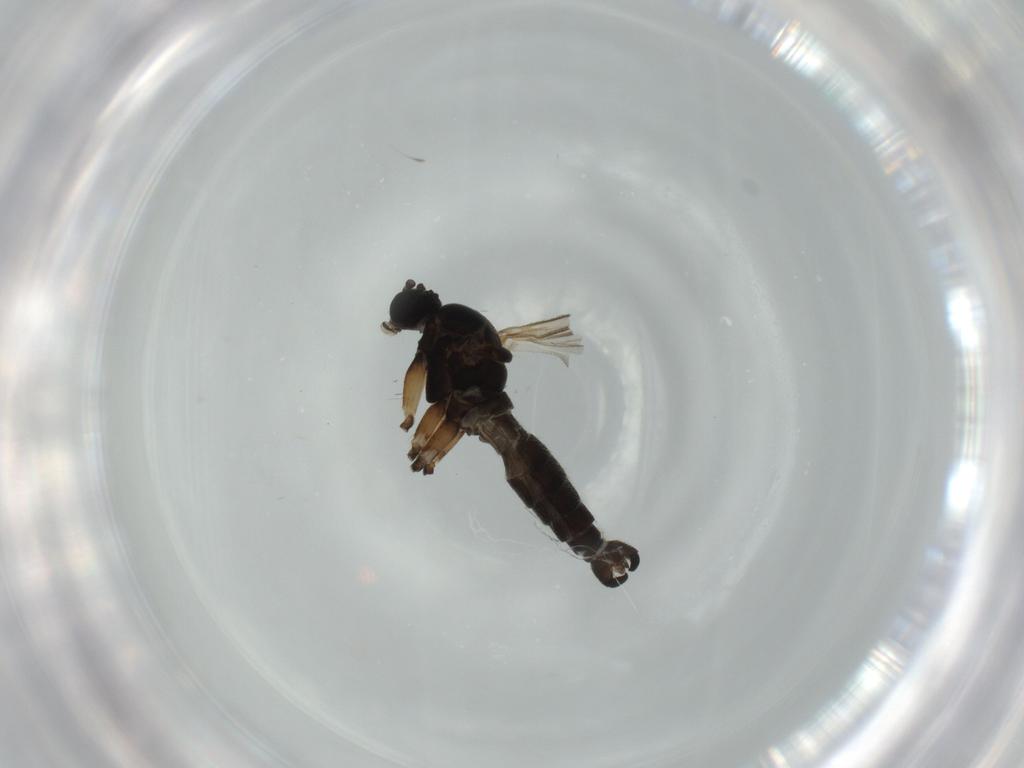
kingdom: Animalia
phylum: Arthropoda
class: Insecta
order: Diptera
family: Sciaridae
